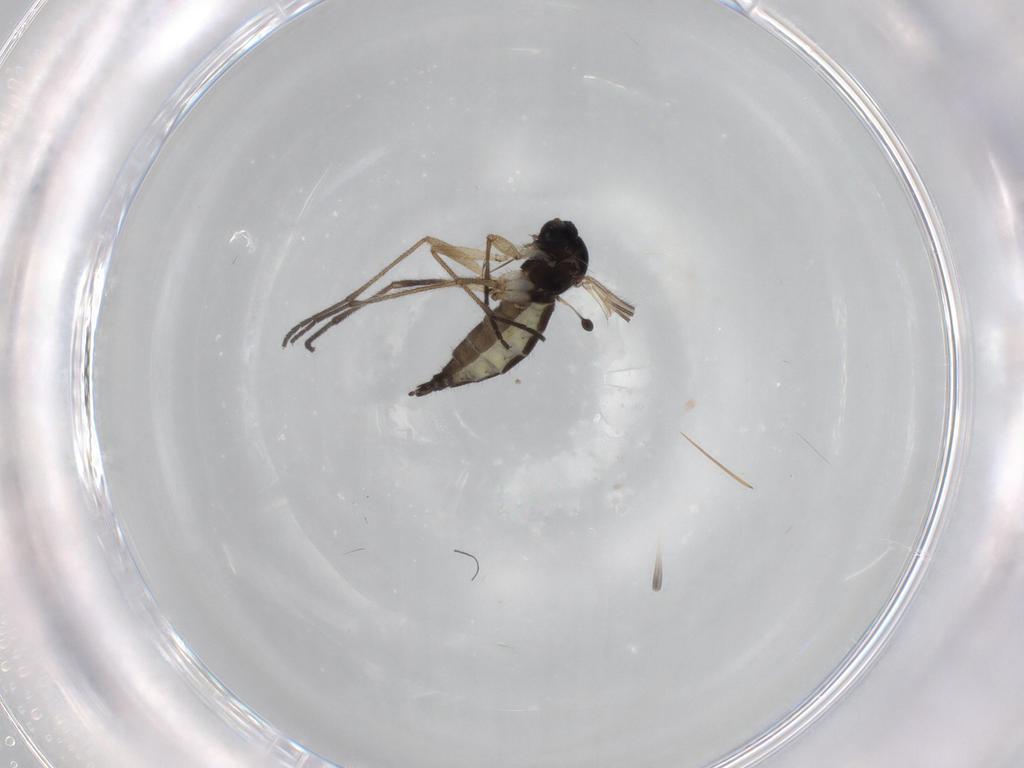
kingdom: Animalia
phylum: Arthropoda
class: Insecta
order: Diptera
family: Sciaridae
